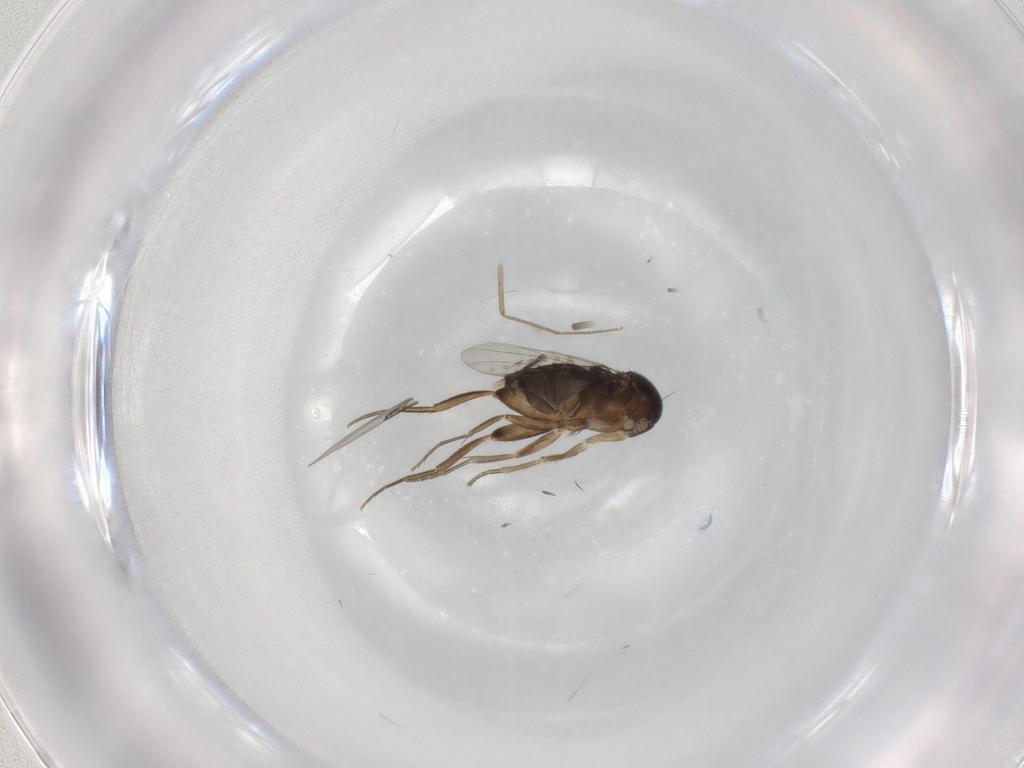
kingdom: Animalia
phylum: Arthropoda
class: Insecta
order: Diptera
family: Phoridae
